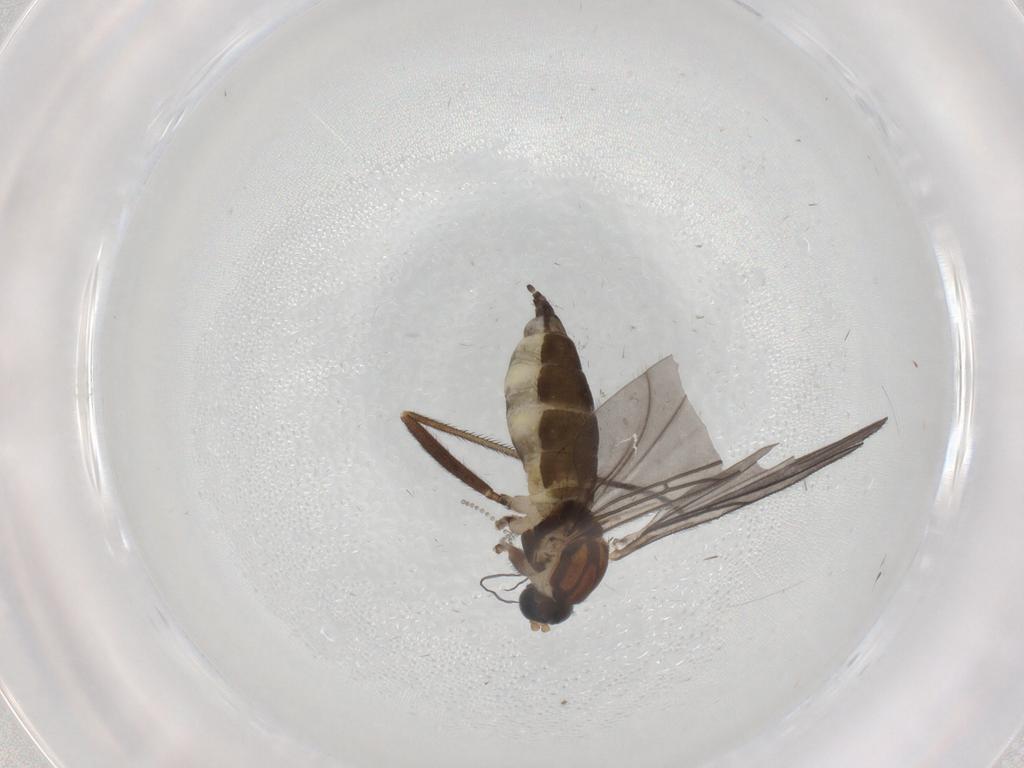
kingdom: Animalia
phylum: Arthropoda
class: Insecta
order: Diptera
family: Sciaridae
